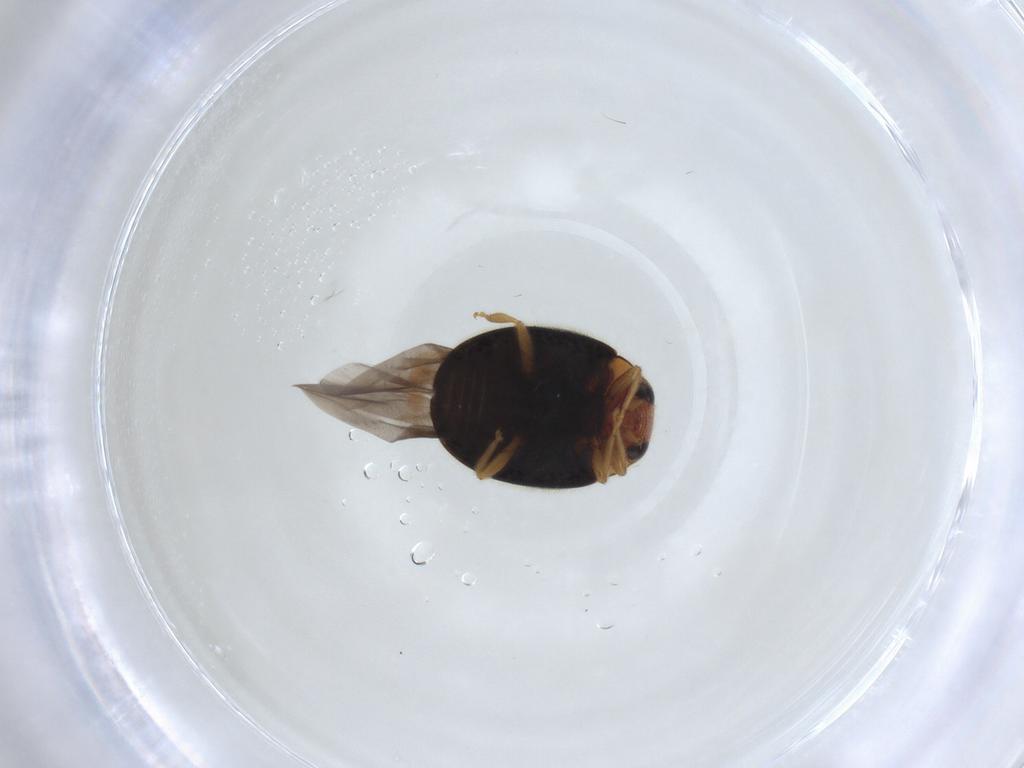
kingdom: Animalia
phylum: Arthropoda
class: Insecta
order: Coleoptera
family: Coccinellidae
